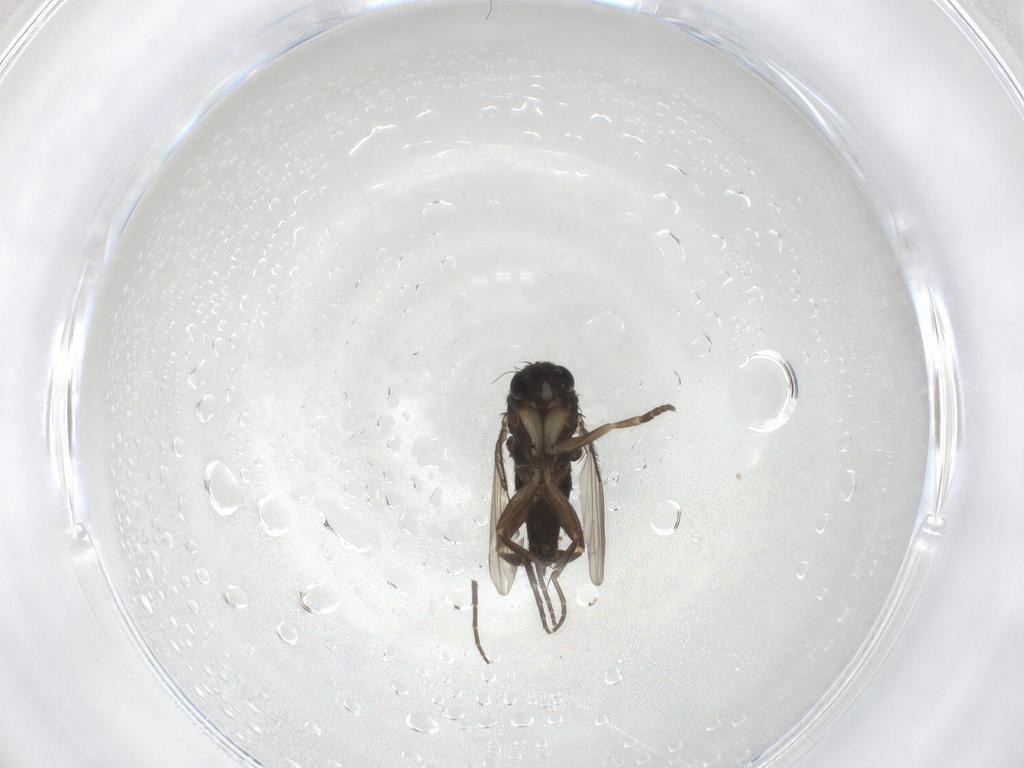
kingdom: Animalia
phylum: Arthropoda
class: Insecta
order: Diptera
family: Phoridae
